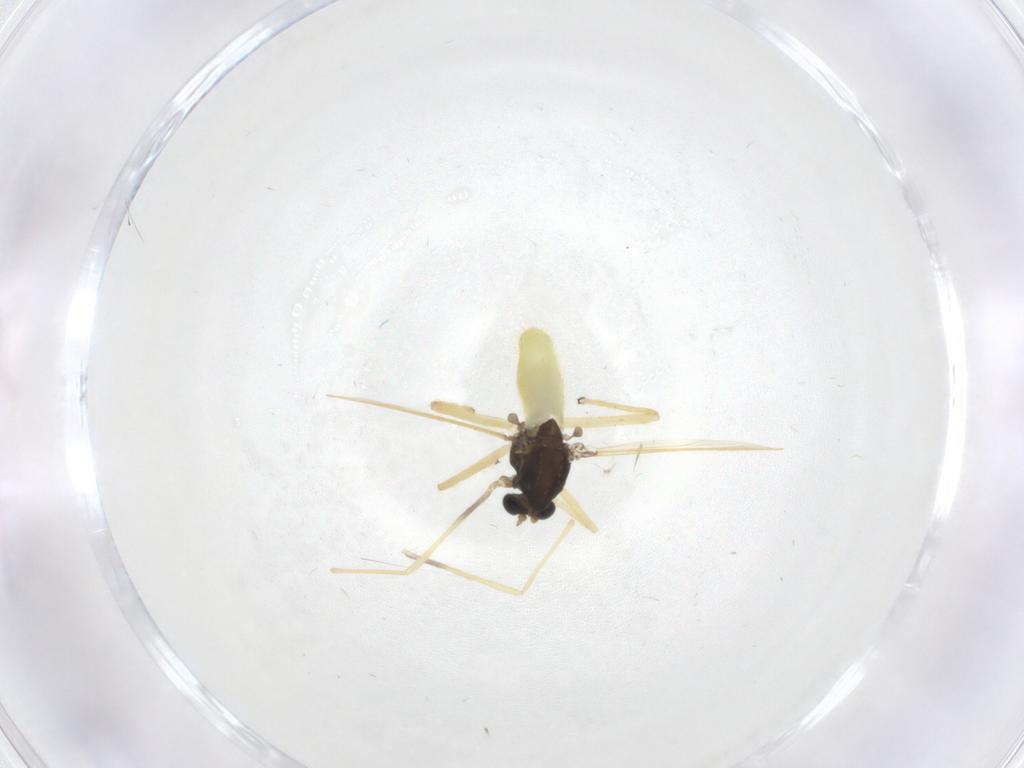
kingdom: Animalia
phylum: Arthropoda
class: Insecta
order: Diptera
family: Chironomidae
